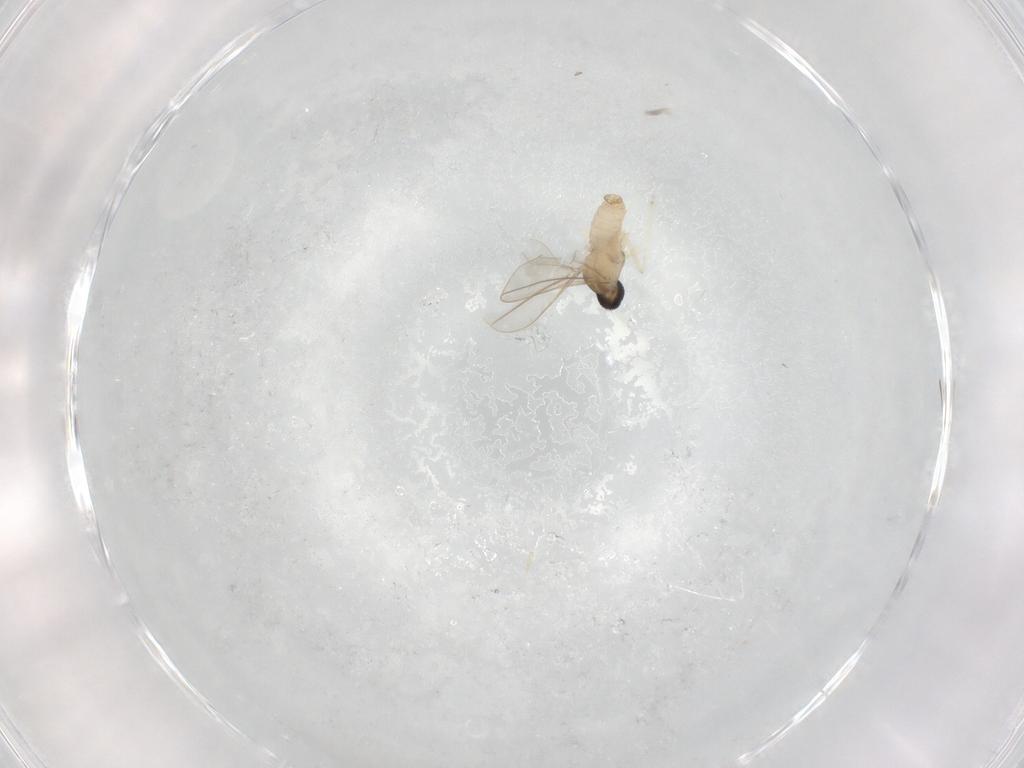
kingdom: Animalia
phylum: Arthropoda
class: Insecta
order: Diptera
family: Cecidomyiidae
